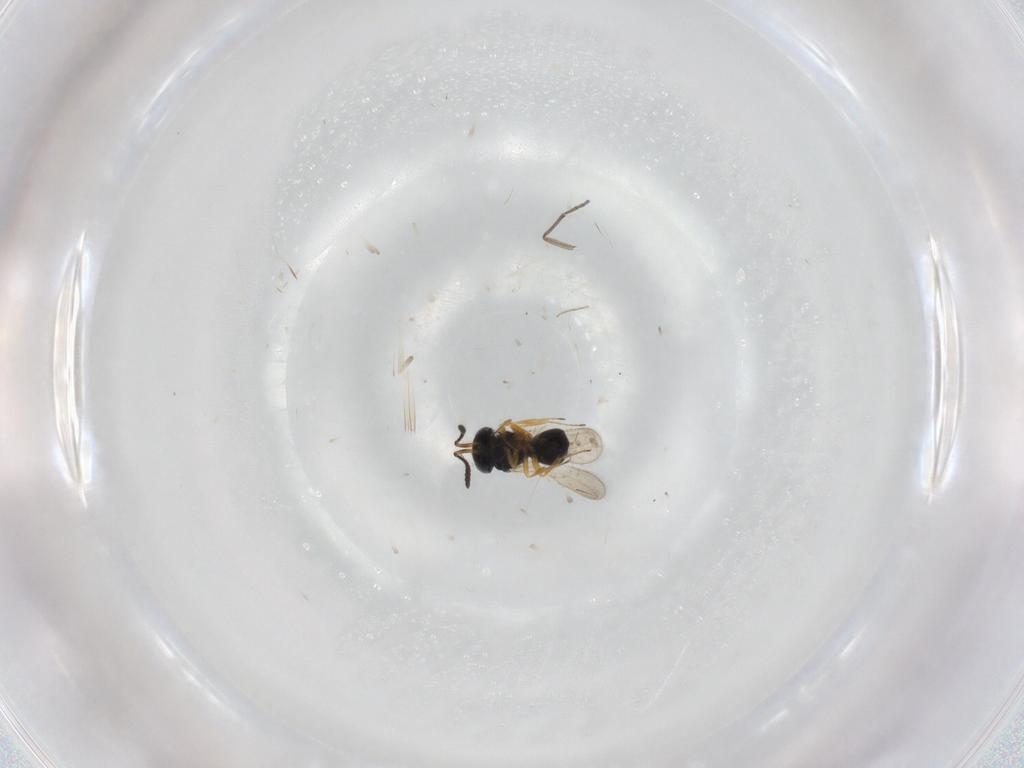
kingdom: Animalia
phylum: Arthropoda
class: Insecta
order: Hymenoptera
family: Scelionidae
